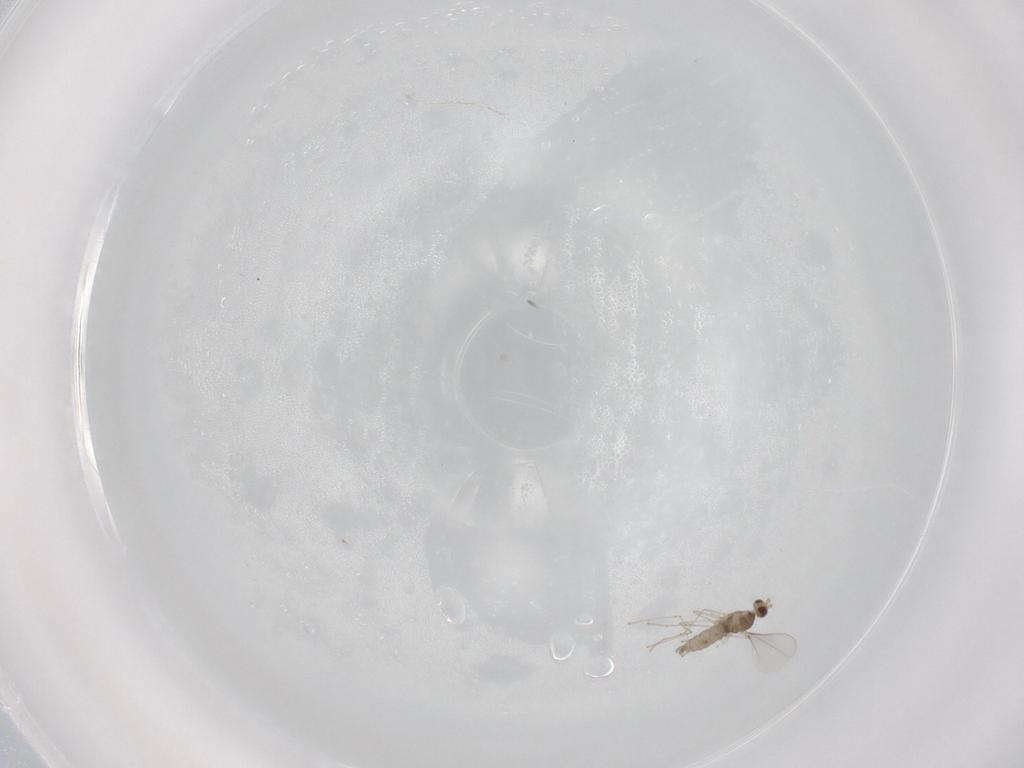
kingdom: Animalia
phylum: Arthropoda
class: Insecta
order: Diptera
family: Cecidomyiidae
